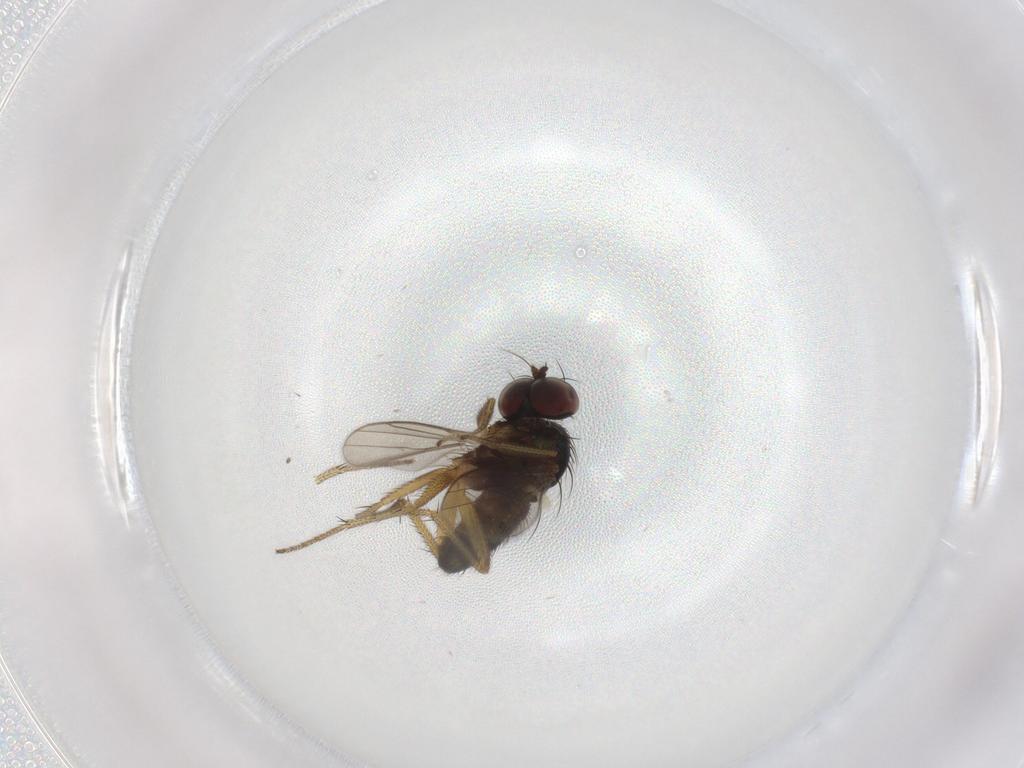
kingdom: Animalia
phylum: Arthropoda
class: Insecta
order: Diptera
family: Dolichopodidae
